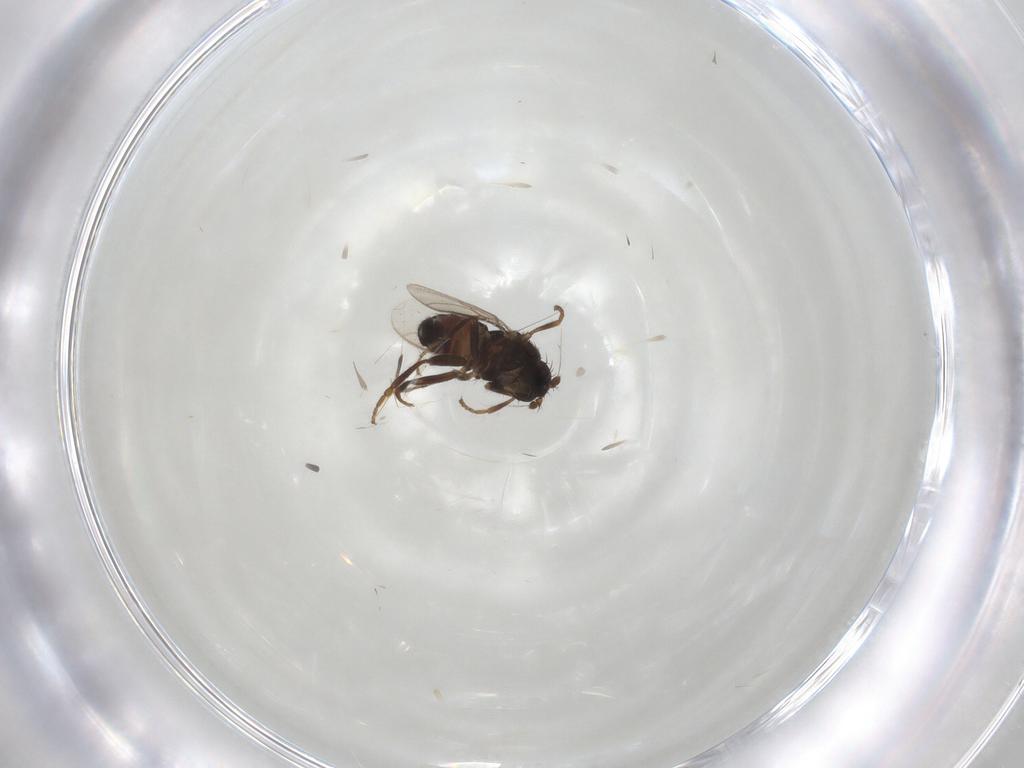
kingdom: Animalia
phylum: Arthropoda
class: Insecta
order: Diptera
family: Sphaeroceridae
